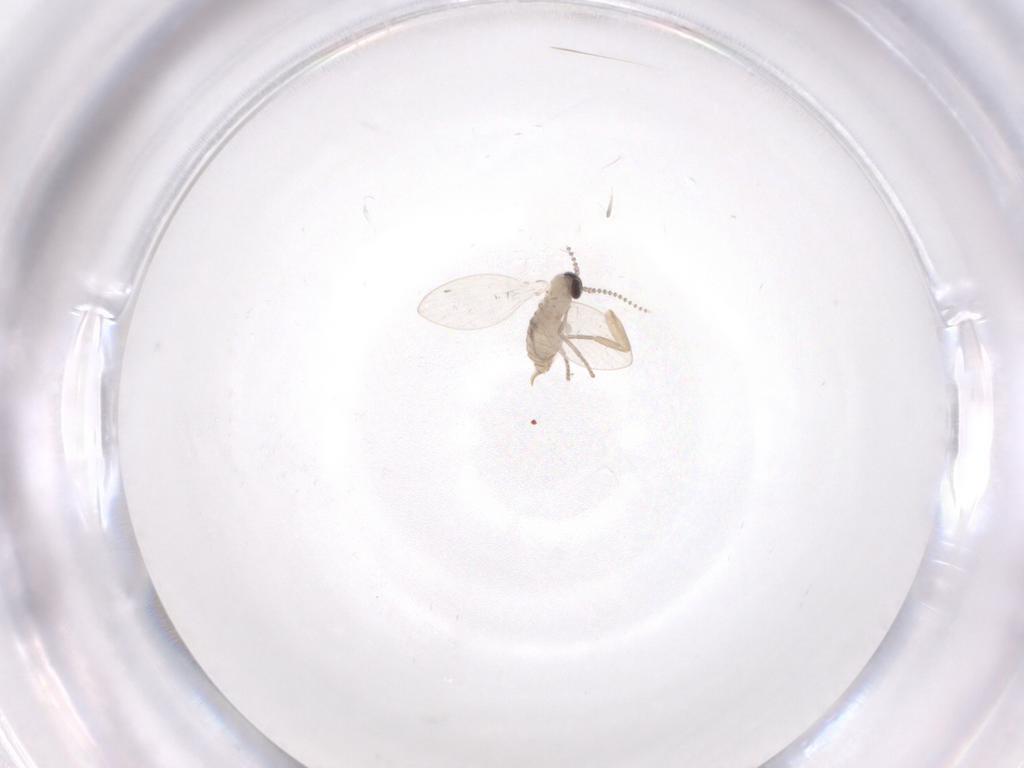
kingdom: Animalia
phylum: Arthropoda
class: Insecta
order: Diptera
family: Psychodidae
